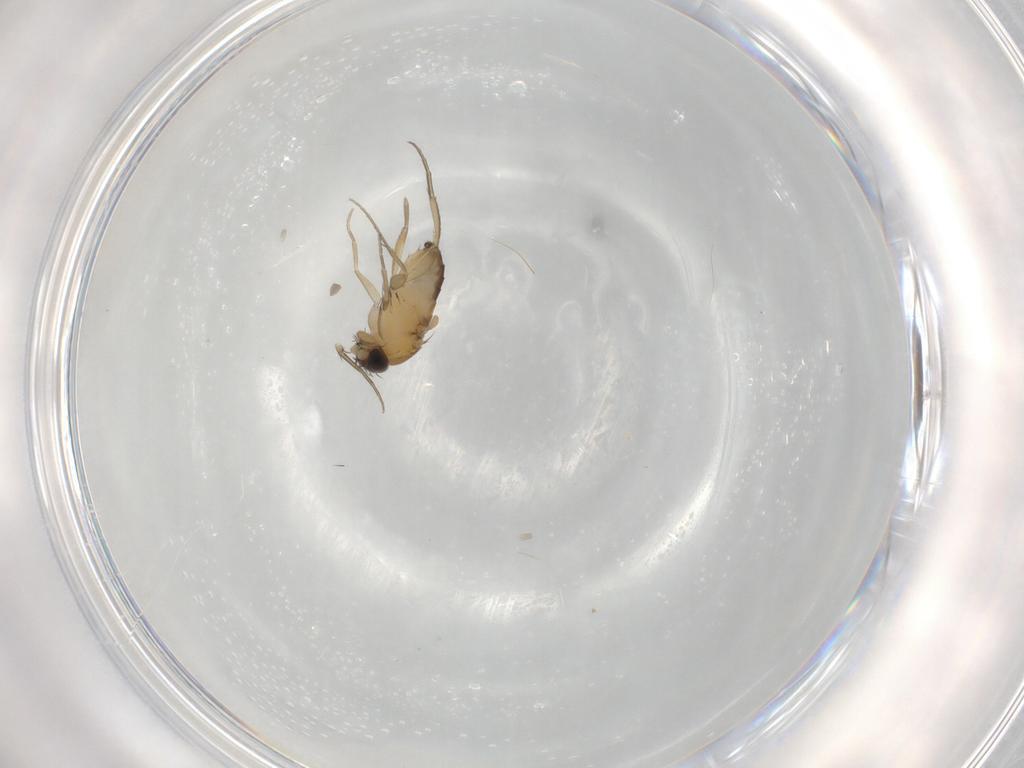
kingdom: Animalia
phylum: Arthropoda
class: Insecta
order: Diptera
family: Phoridae
